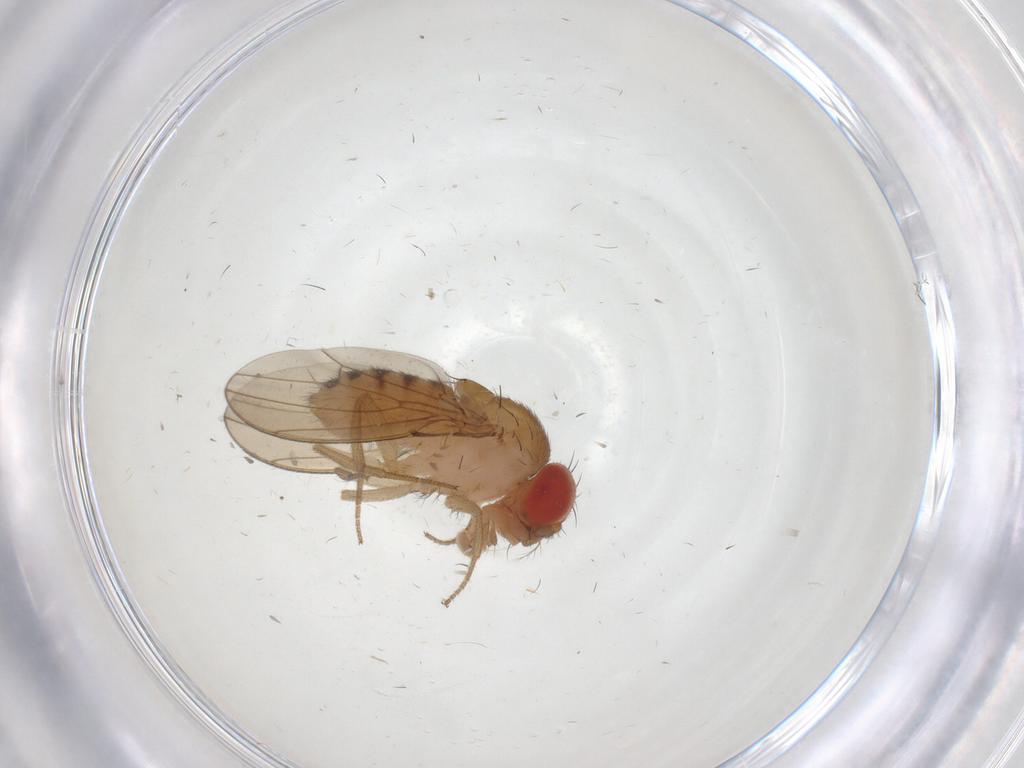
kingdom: Animalia
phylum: Arthropoda
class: Insecta
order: Diptera
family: Drosophilidae
